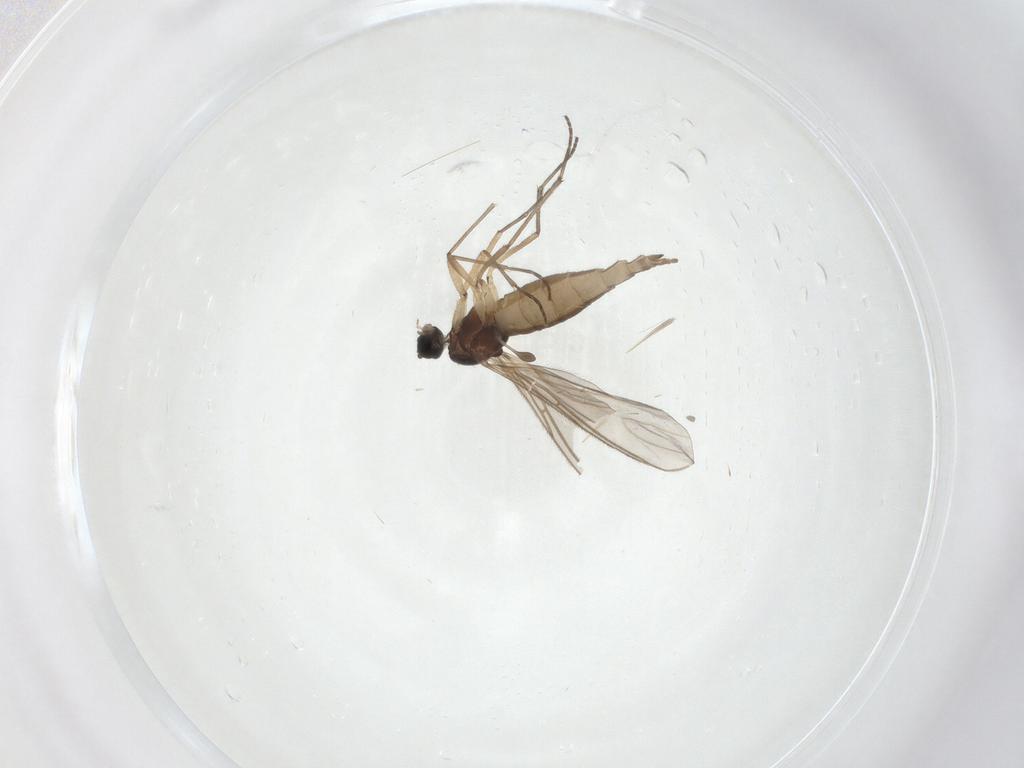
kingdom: Animalia
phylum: Arthropoda
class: Insecta
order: Diptera
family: Sciaridae
